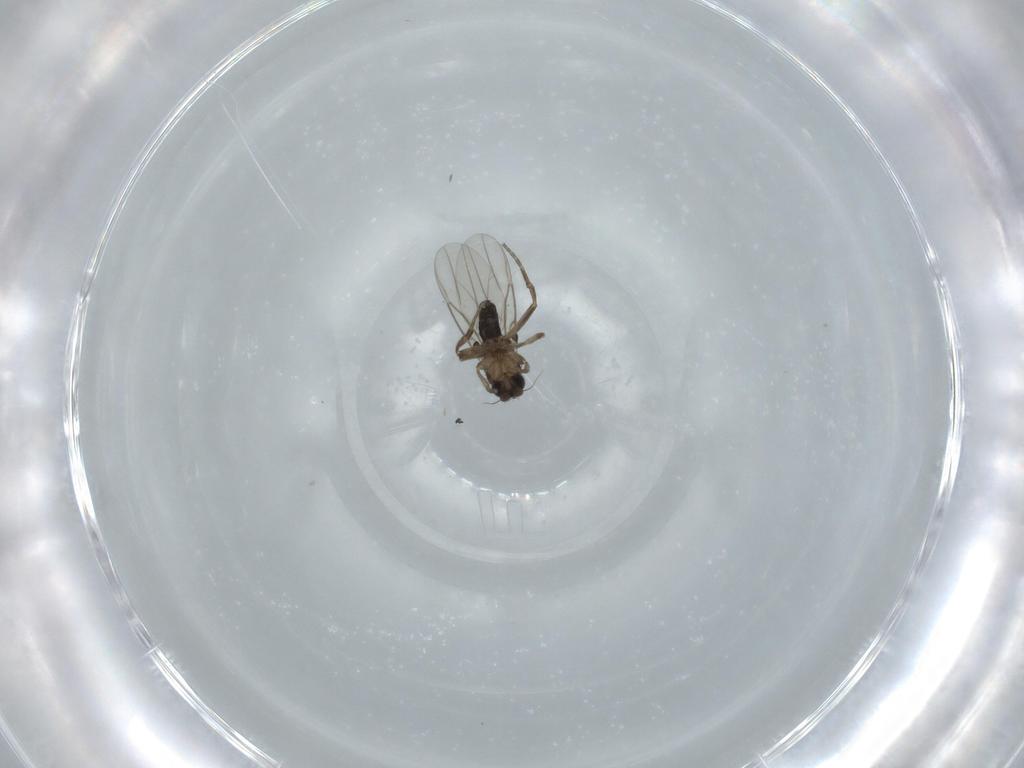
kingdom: Animalia
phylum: Arthropoda
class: Insecta
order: Diptera
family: Phoridae
